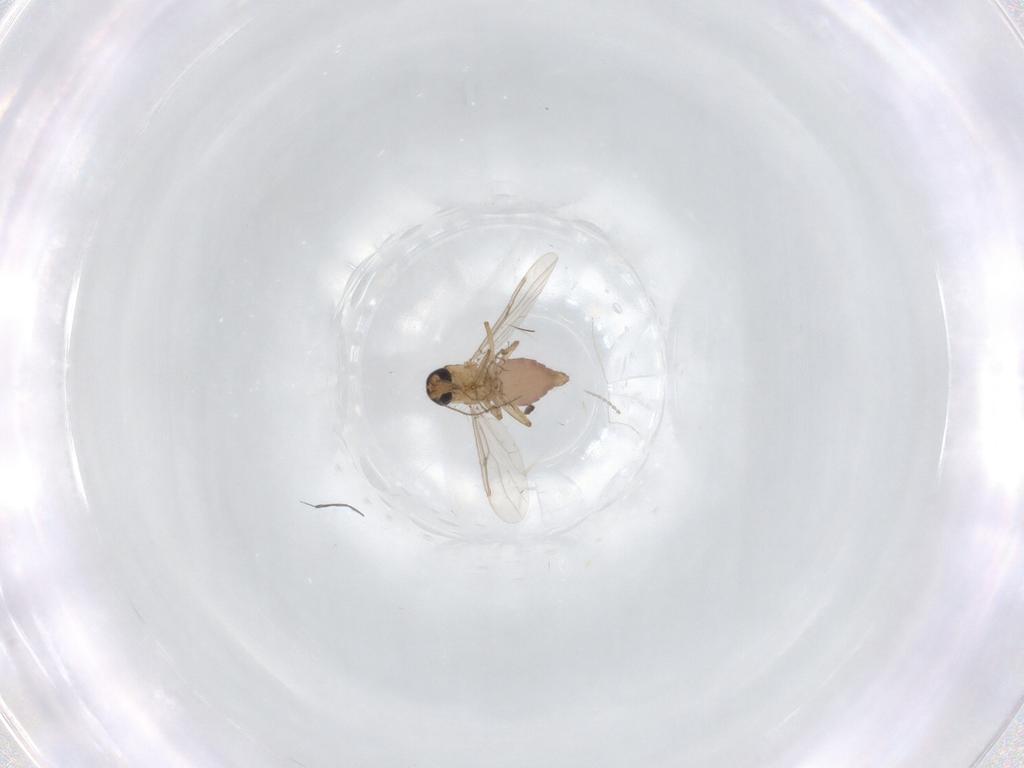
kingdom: Animalia
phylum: Arthropoda
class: Insecta
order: Diptera
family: Ceratopogonidae
